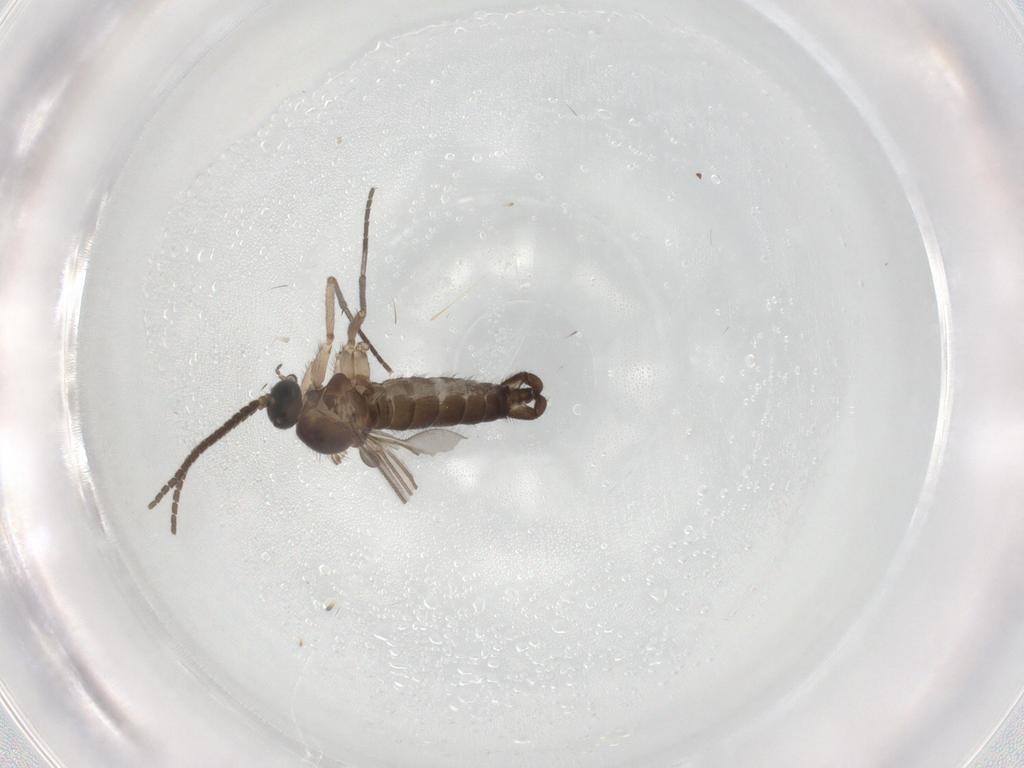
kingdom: Animalia
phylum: Arthropoda
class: Insecta
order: Diptera
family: Sciaridae
